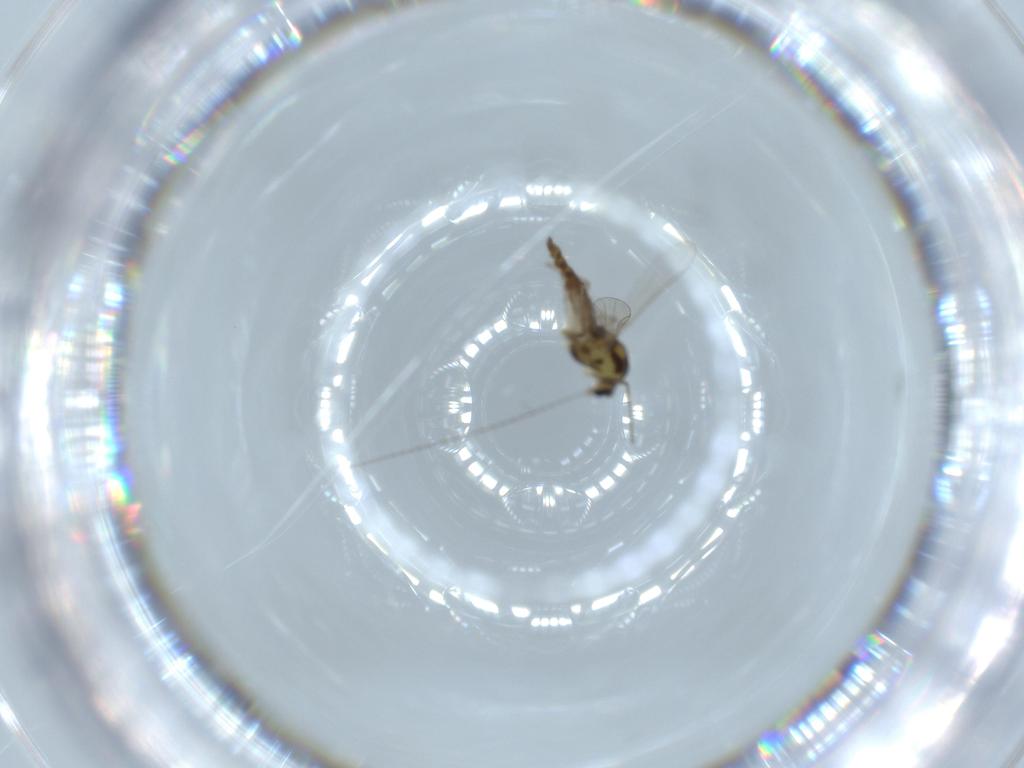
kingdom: Animalia
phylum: Arthropoda
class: Insecta
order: Diptera
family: Chironomidae
